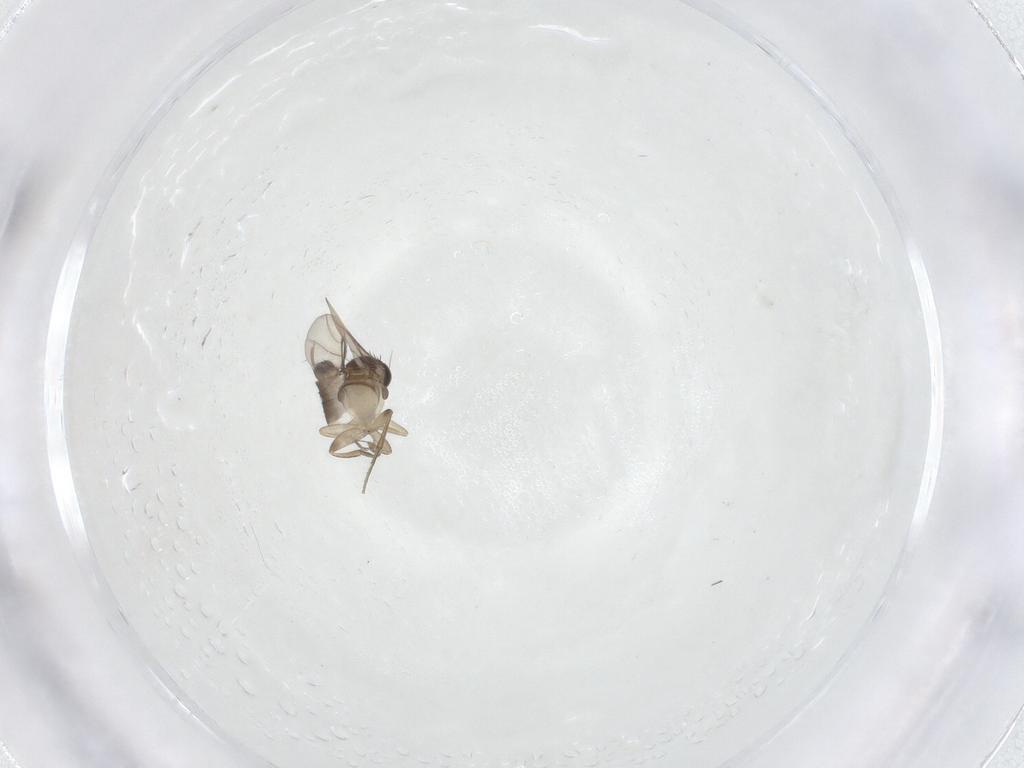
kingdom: Animalia
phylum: Arthropoda
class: Insecta
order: Diptera
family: Phoridae
